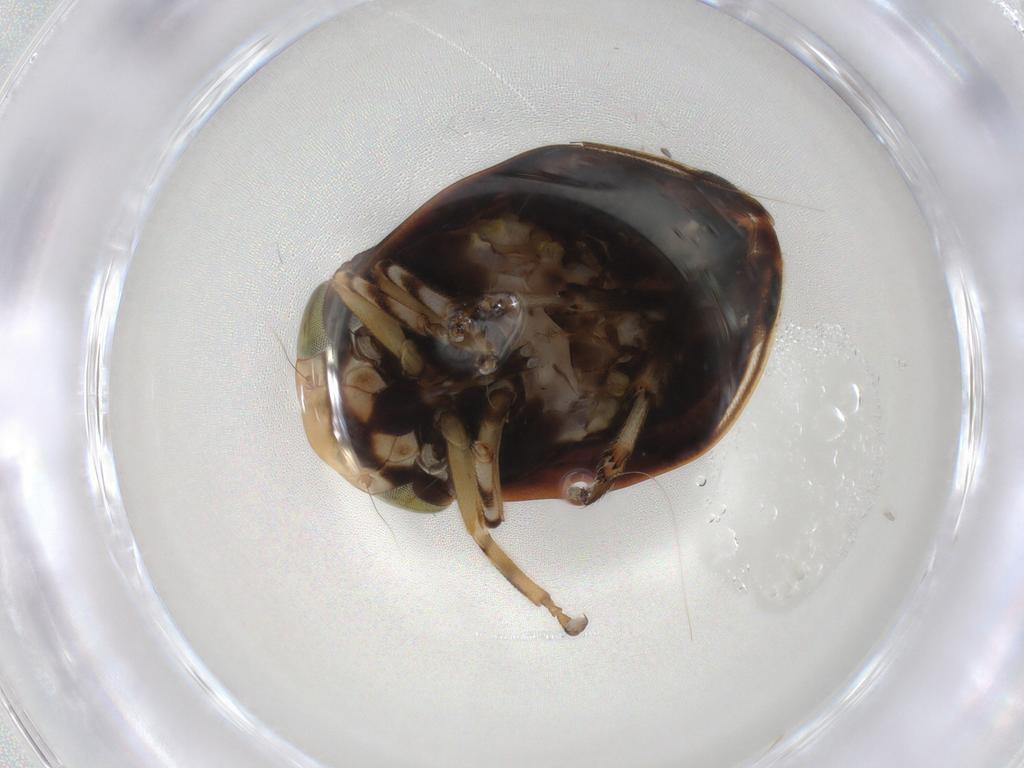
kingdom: Animalia
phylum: Arthropoda
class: Insecta
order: Hemiptera
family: Clastopteridae
